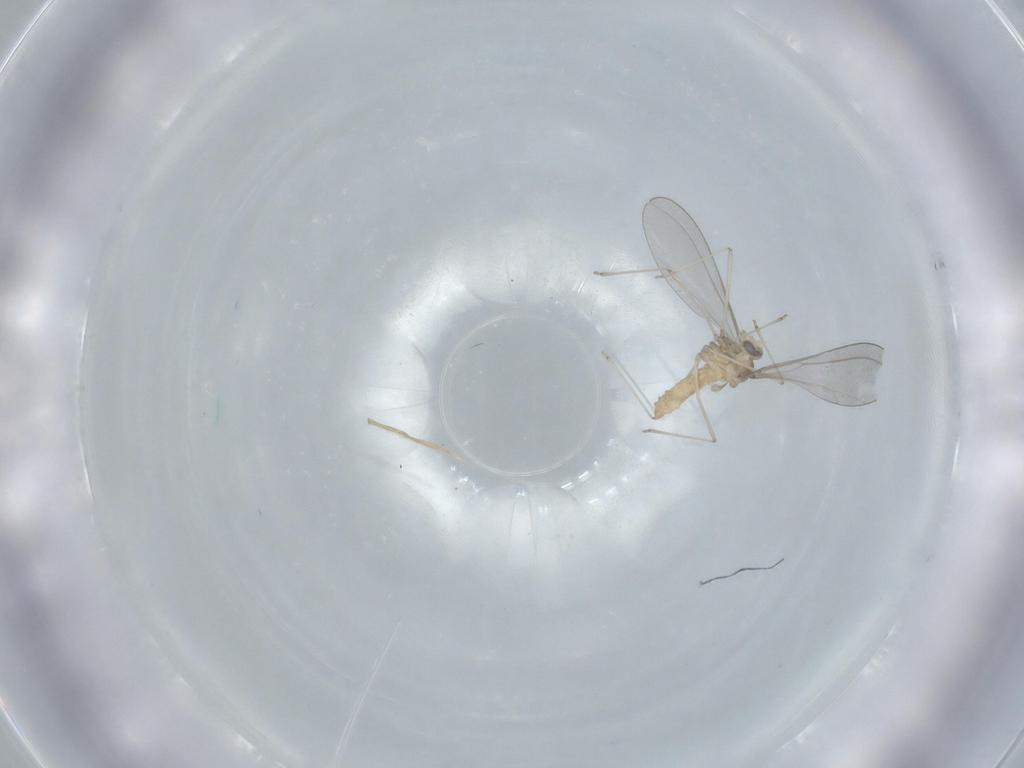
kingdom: Animalia
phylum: Arthropoda
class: Insecta
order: Diptera
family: Cecidomyiidae
